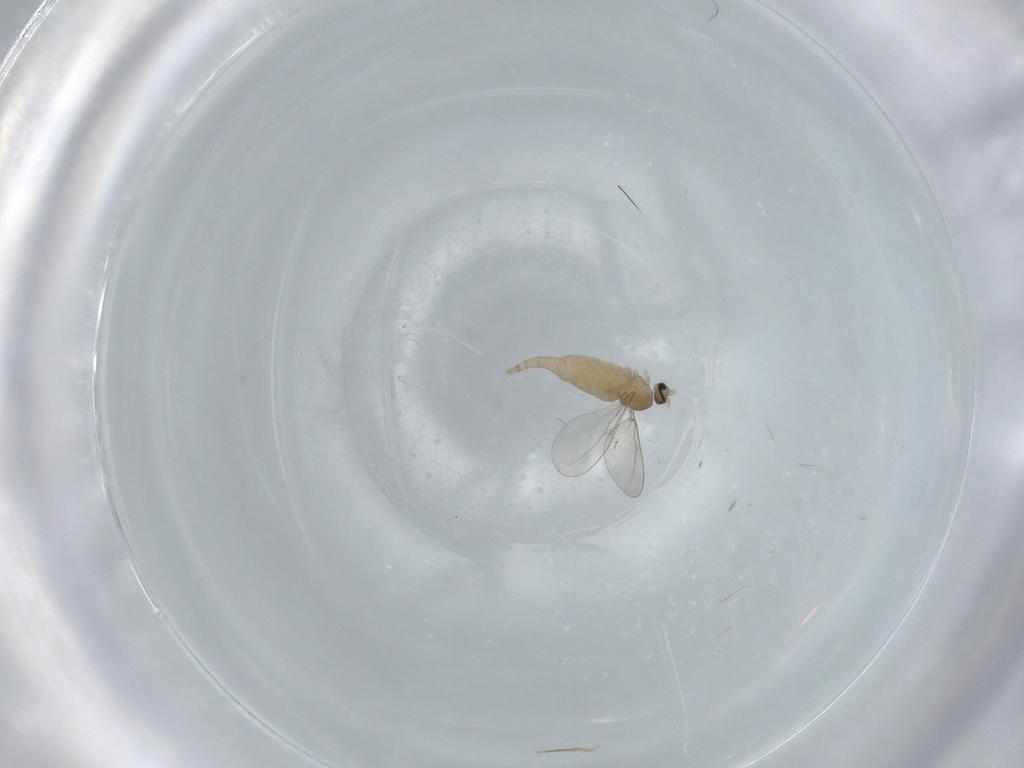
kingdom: Animalia
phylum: Arthropoda
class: Insecta
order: Diptera
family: Cecidomyiidae
